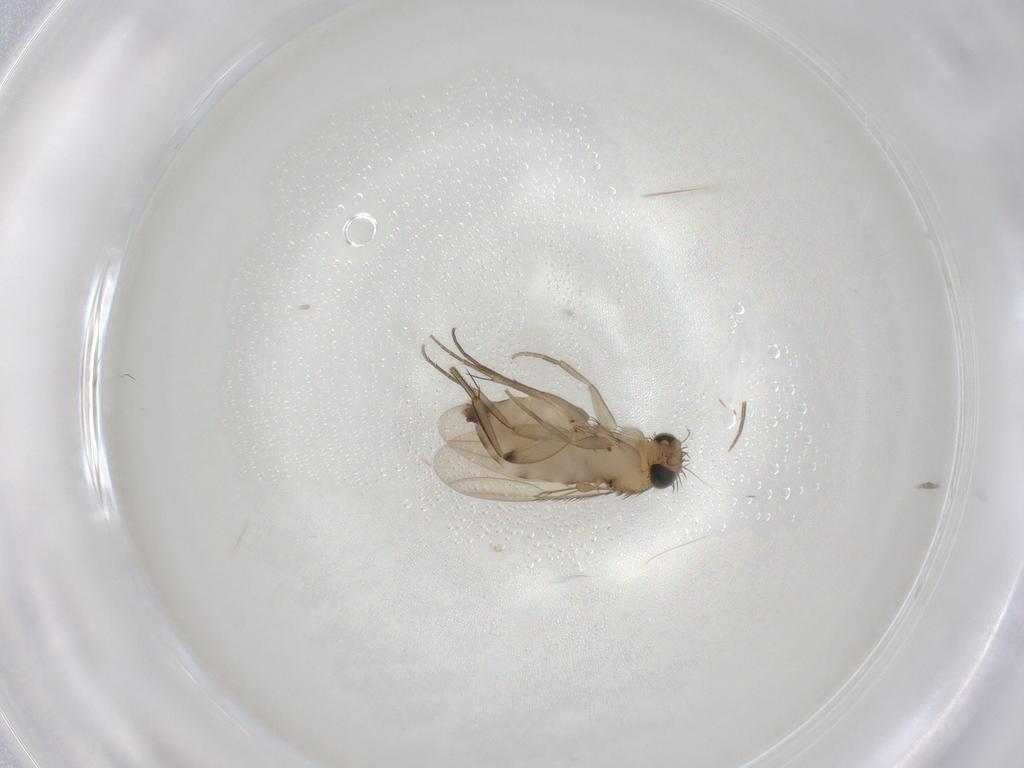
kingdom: Animalia
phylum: Arthropoda
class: Insecta
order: Diptera
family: Phoridae
